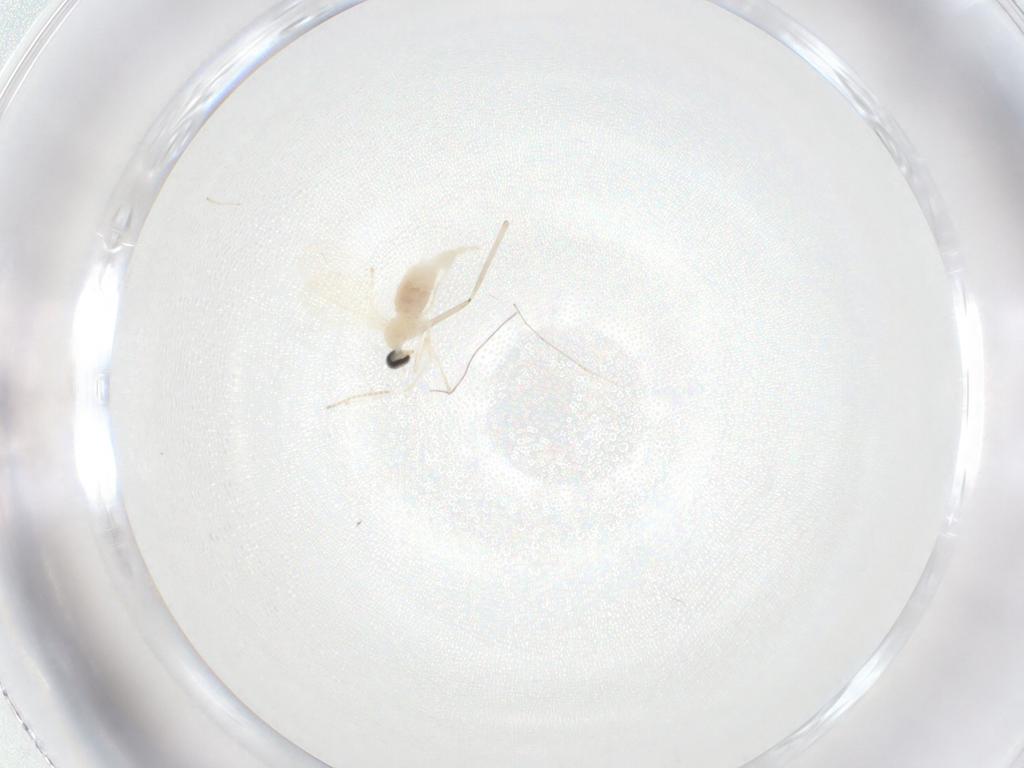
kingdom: Animalia
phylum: Arthropoda
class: Insecta
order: Diptera
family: Cecidomyiidae
